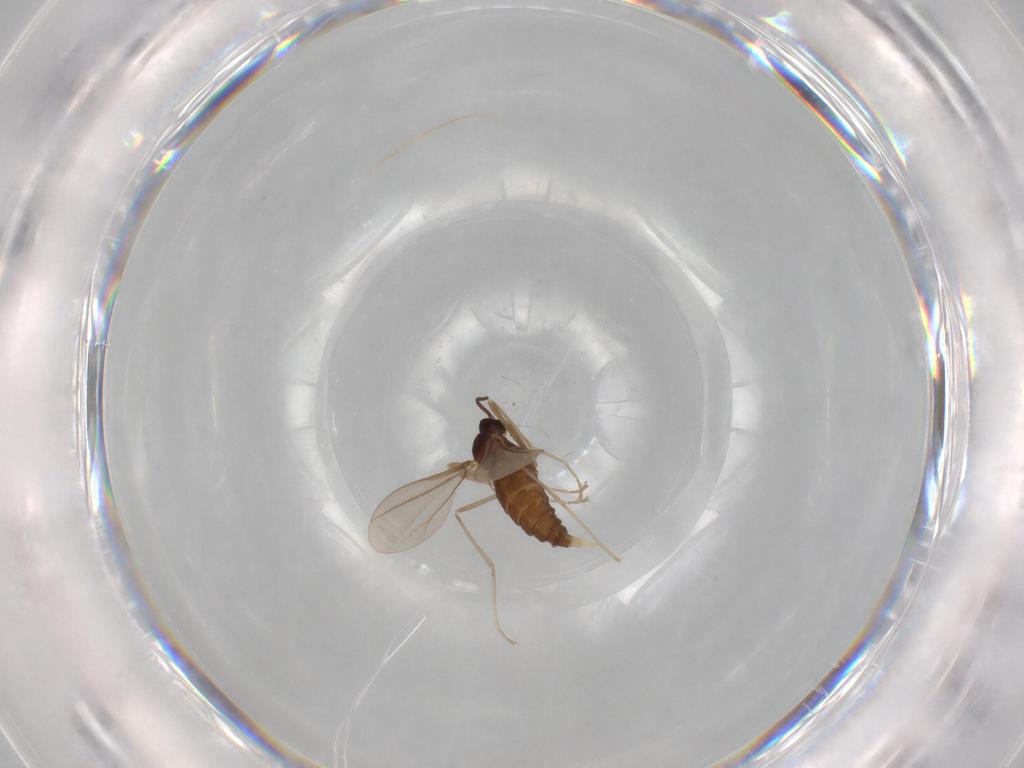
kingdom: Animalia
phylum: Arthropoda
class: Insecta
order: Diptera
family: Cecidomyiidae
